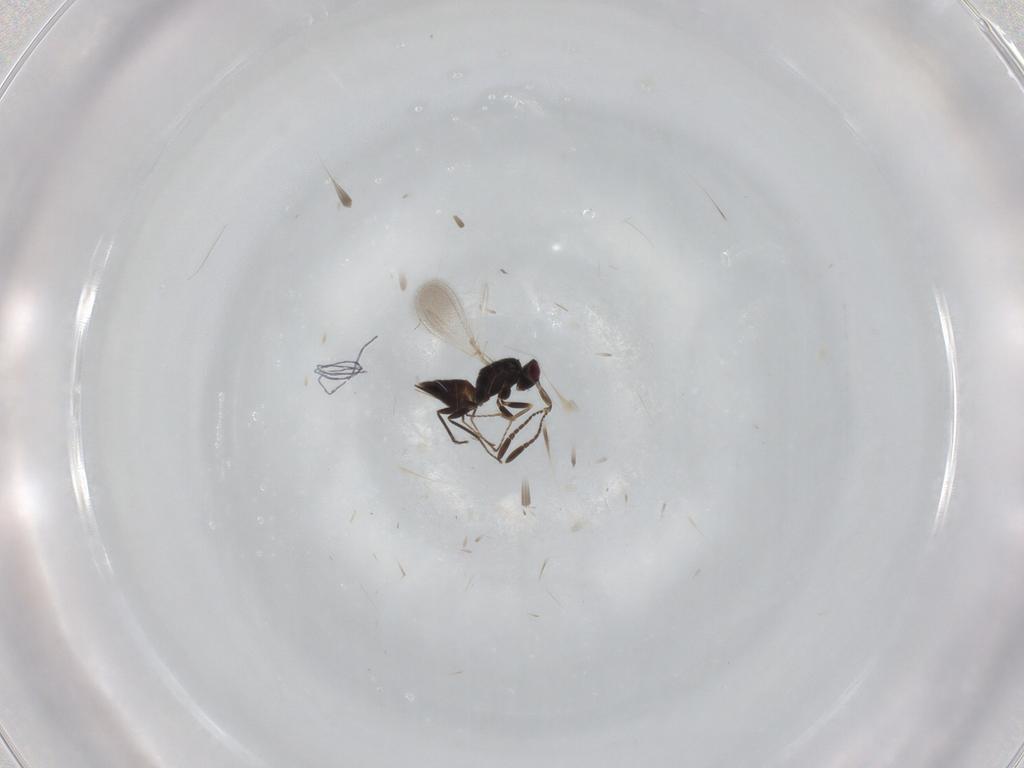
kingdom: Animalia
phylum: Arthropoda
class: Insecta
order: Hymenoptera
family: Mymaridae
